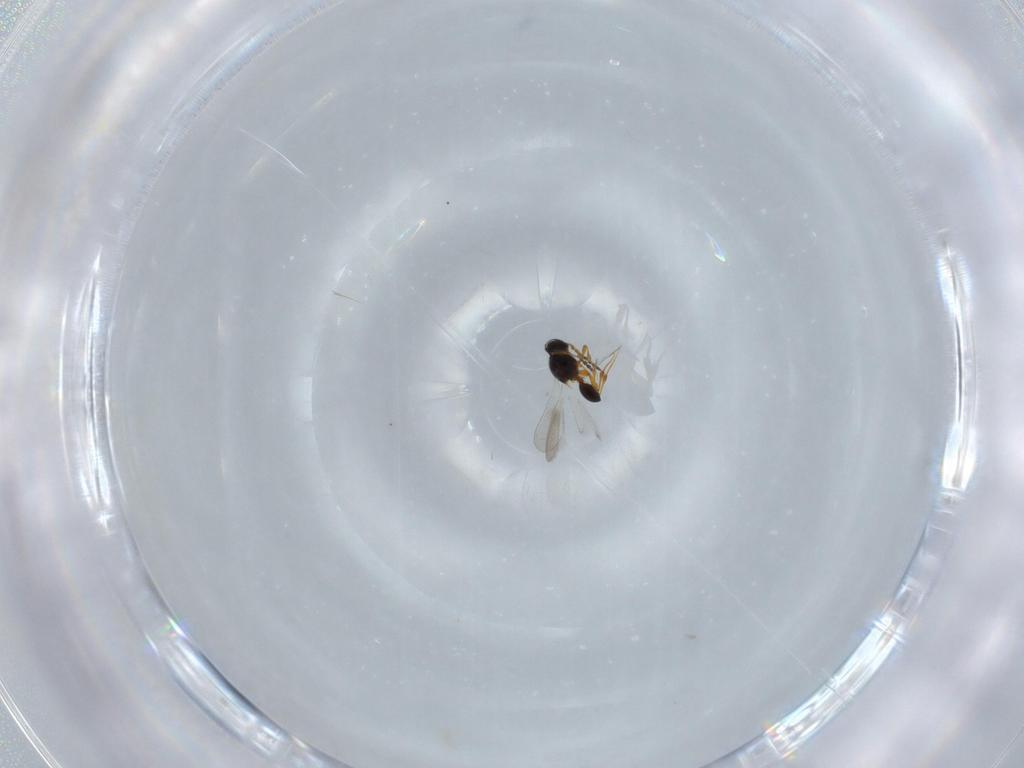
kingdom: Animalia
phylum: Arthropoda
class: Insecta
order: Hymenoptera
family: Platygastridae
